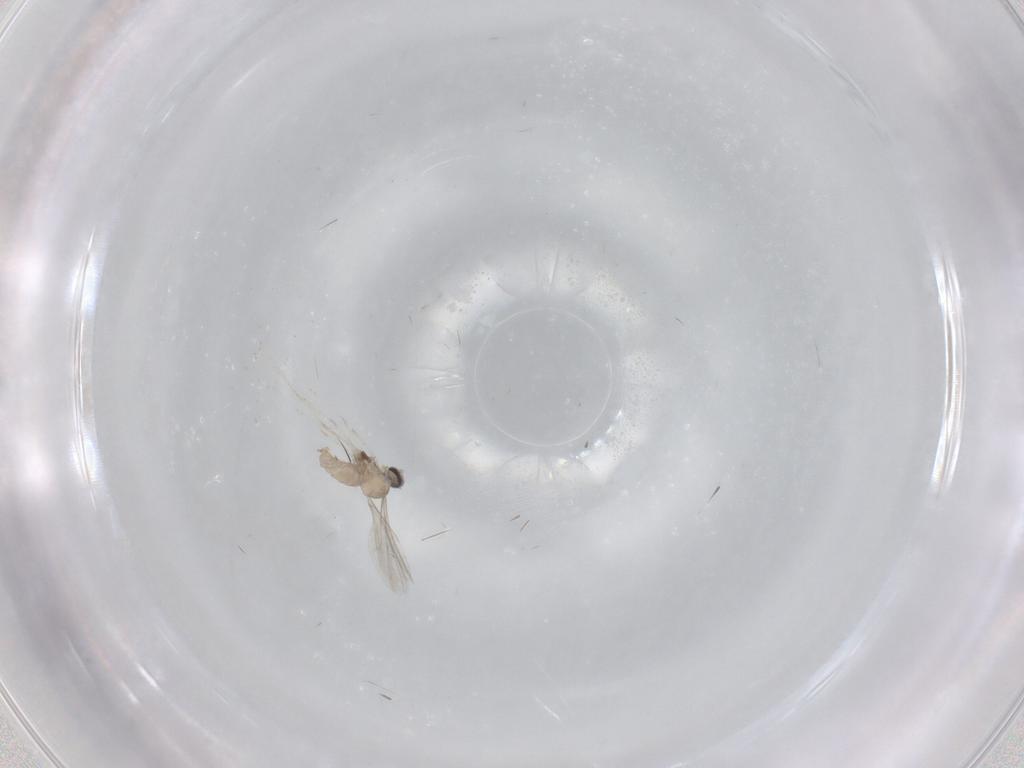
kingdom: Animalia
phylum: Arthropoda
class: Insecta
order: Diptera
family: Cecidomyiidae
